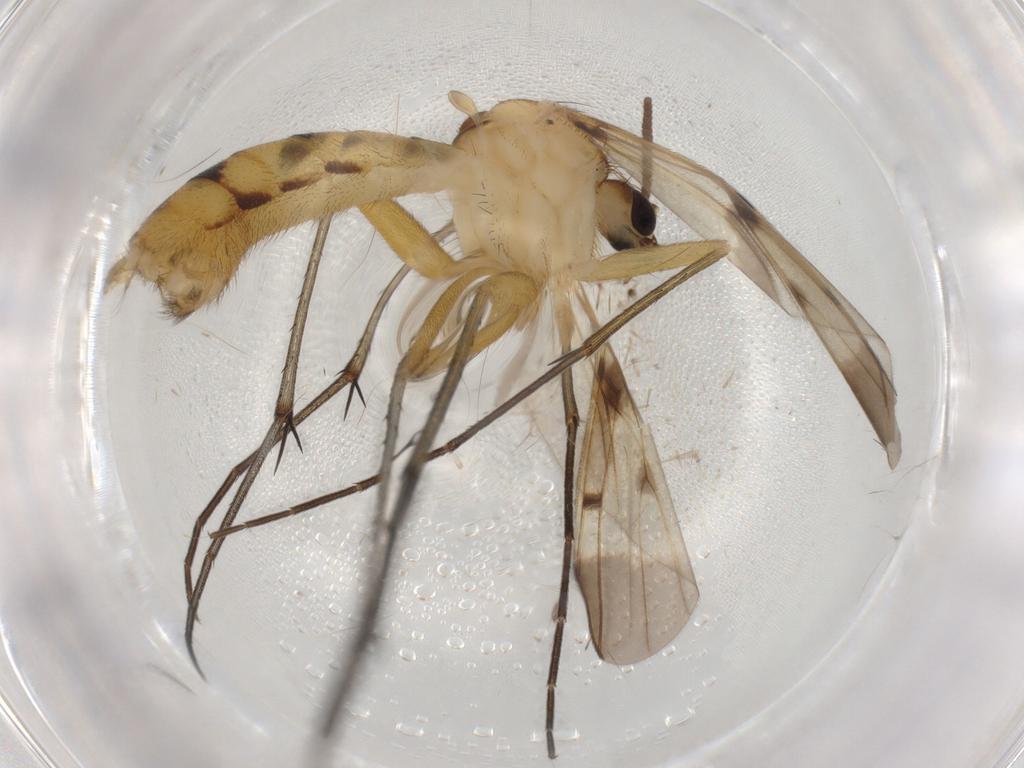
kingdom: Animalia
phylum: Arthropoda
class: Insecta
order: Diptera
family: Mycetophilidae
